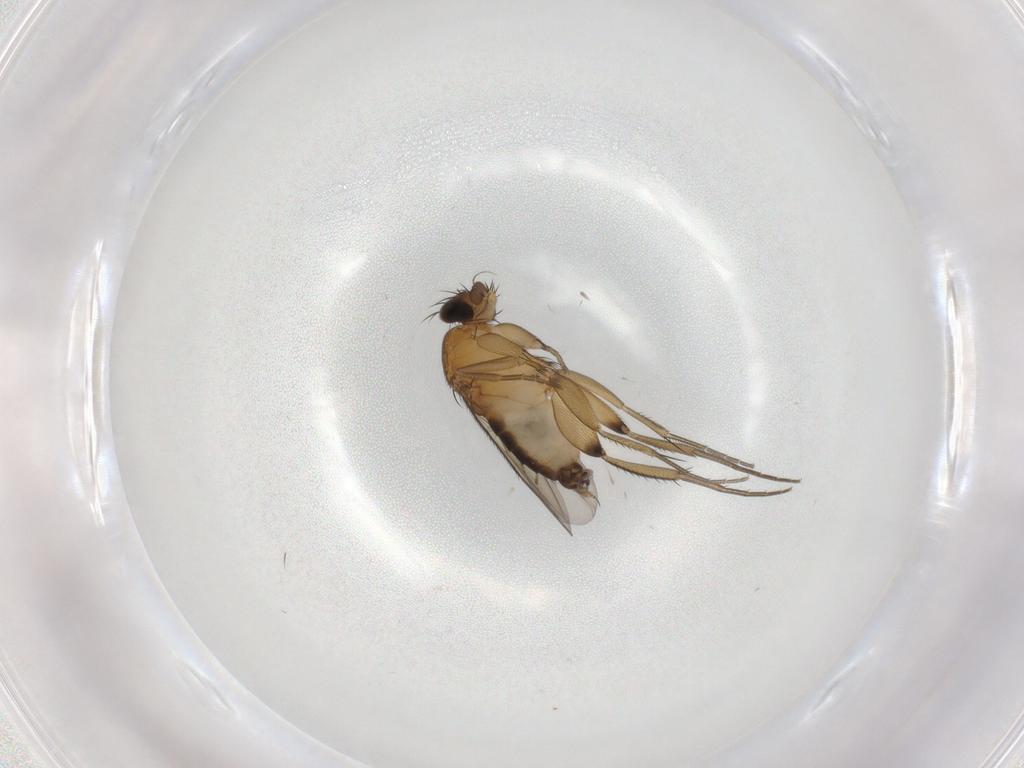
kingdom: Animalia
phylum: Arthropoda
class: Insecta
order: Diptera
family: Phoridae
